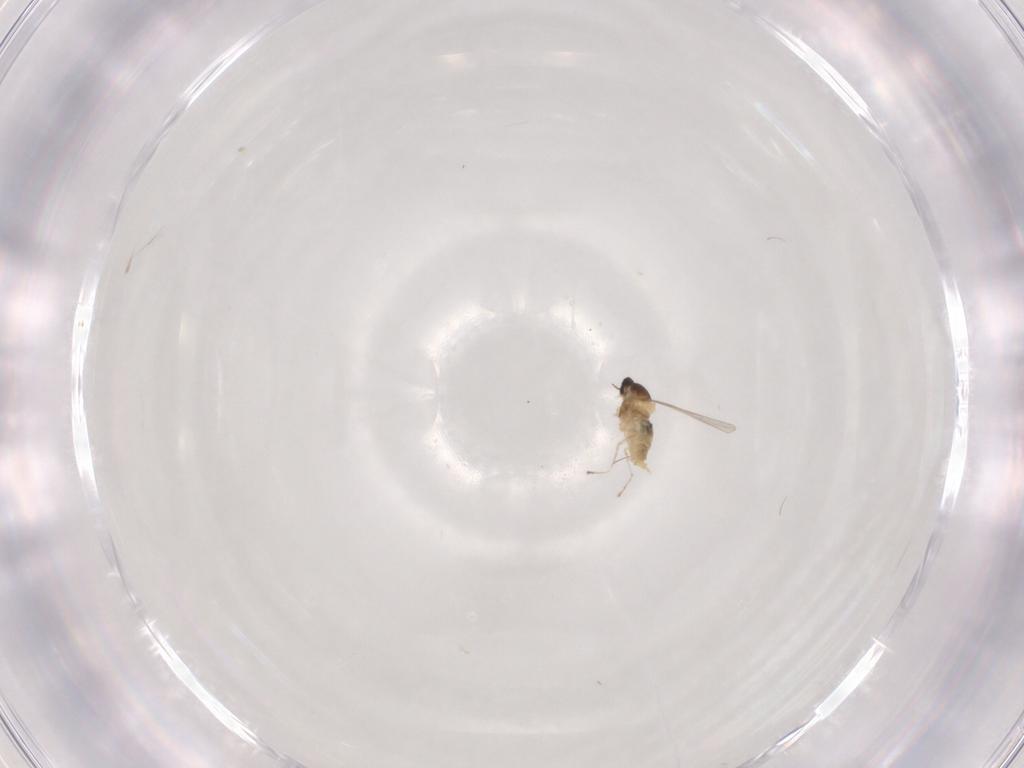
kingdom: Animalia
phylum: Arthropoda
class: Insecta
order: Diptera
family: Cecidomyiidae
